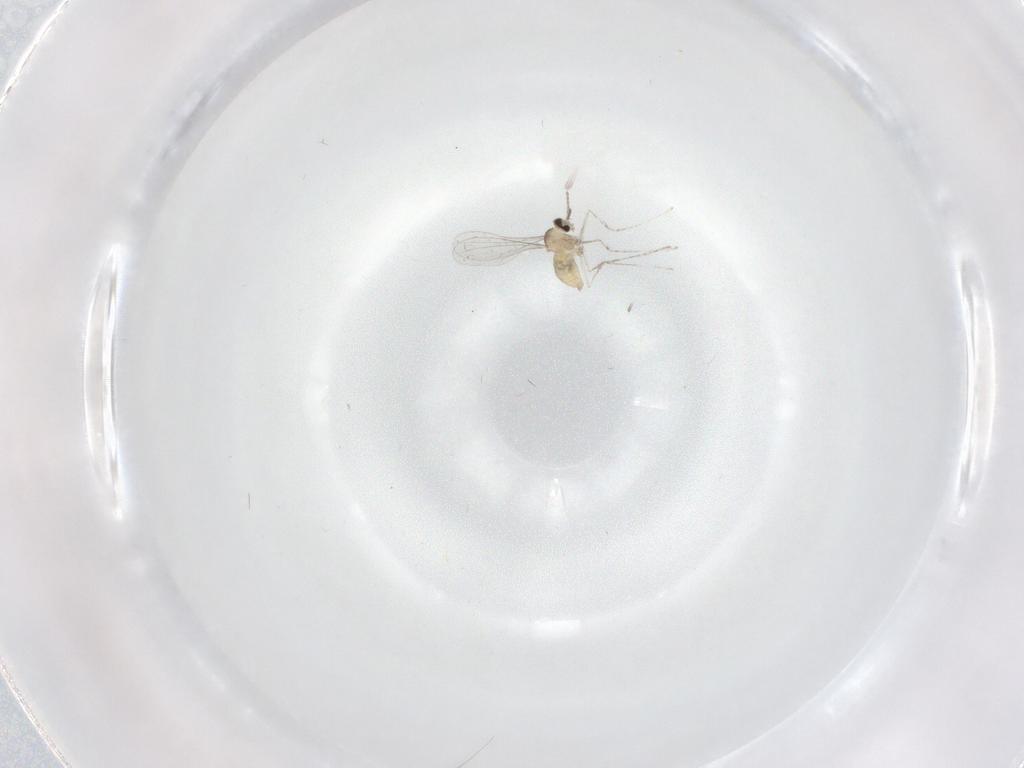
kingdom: Animalia
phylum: Arthropoda
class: Insecta
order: Diptera
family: Cecidomyiidae
